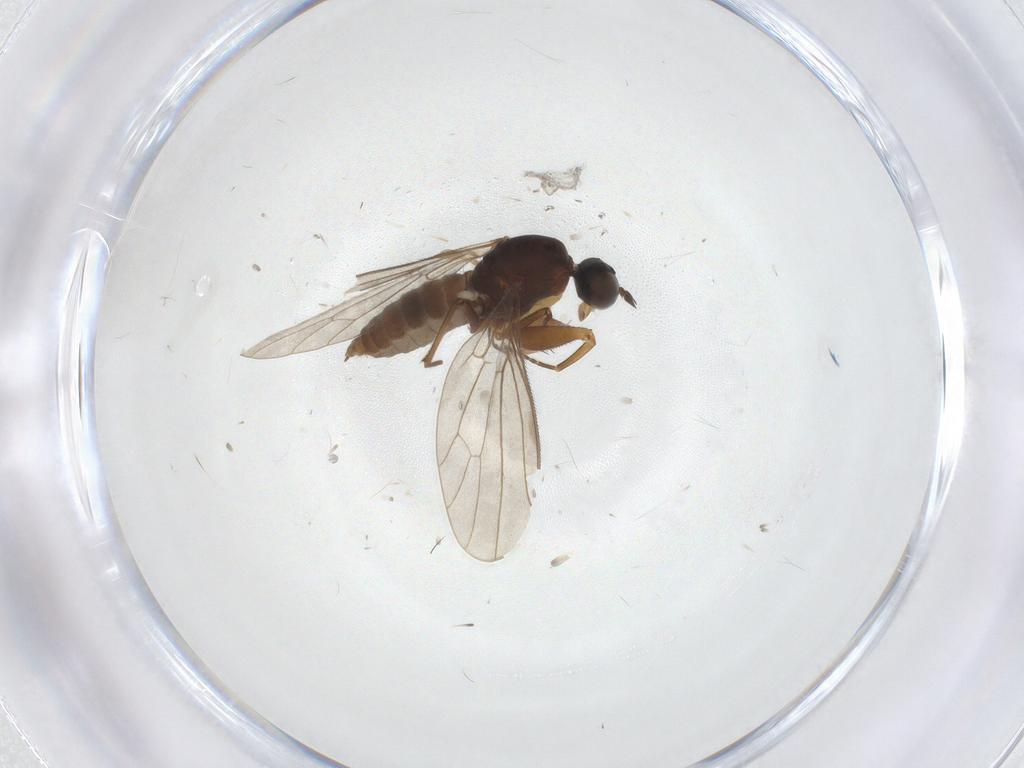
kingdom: Animalia
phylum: Arthropoda
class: Insecta
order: Diptera
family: Empididae
